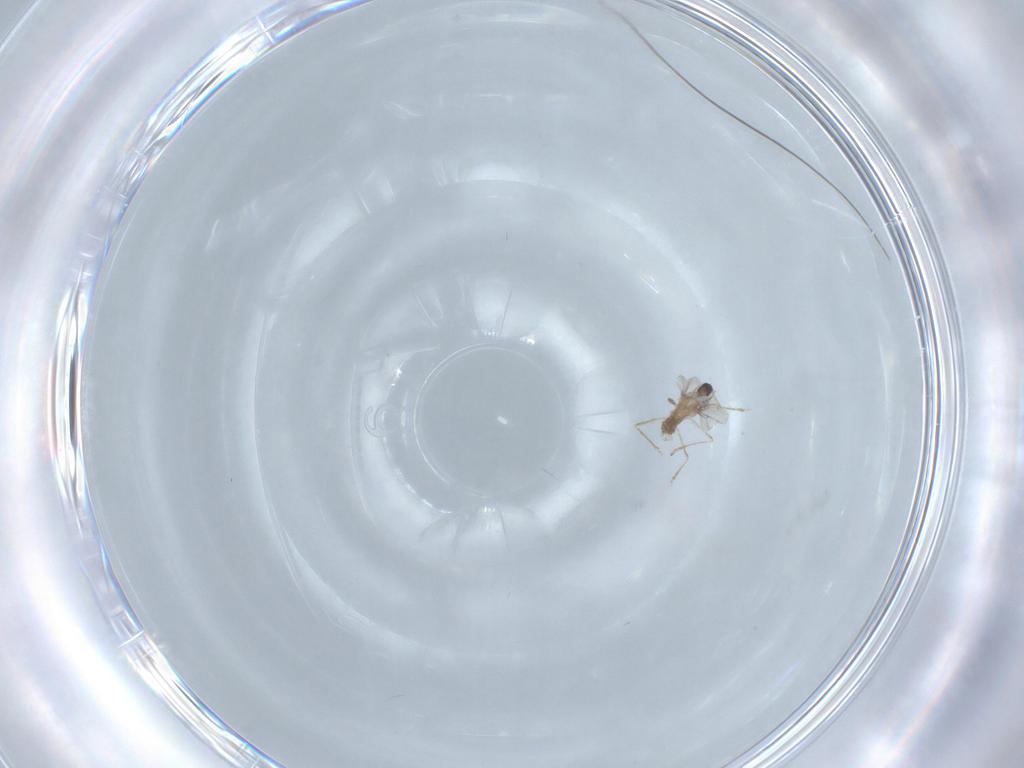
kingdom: Animalia
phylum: Arthropoda
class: Insecta
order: Diptera
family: Cecidomyiidae
